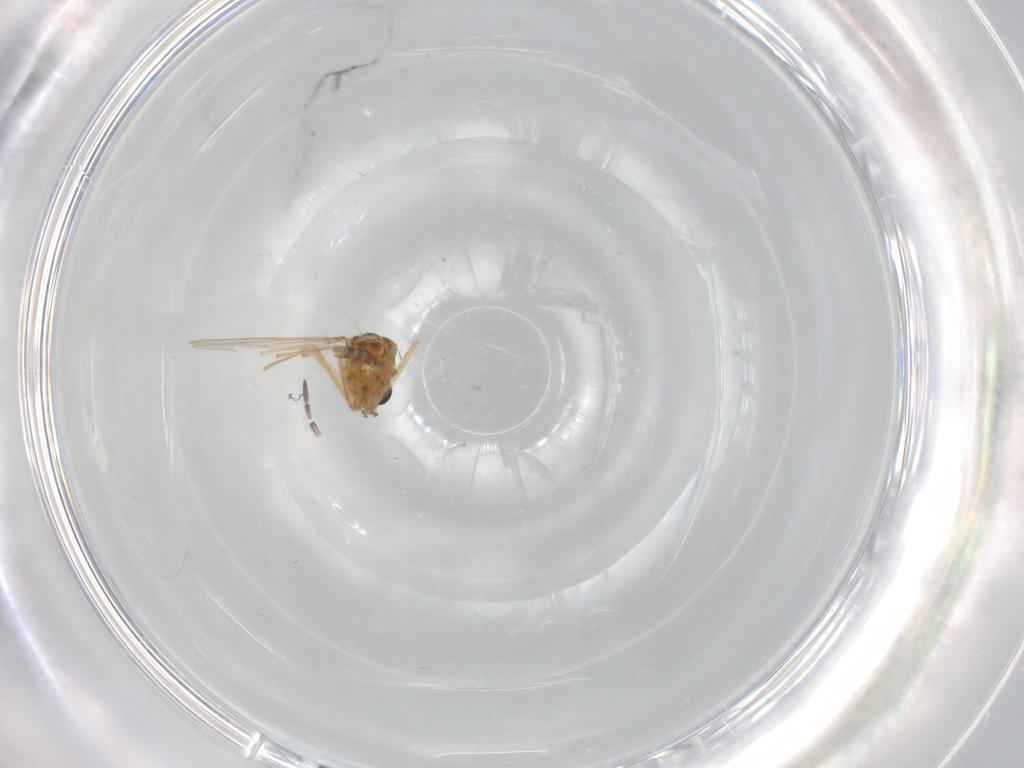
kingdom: Animalia
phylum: Arthropoda
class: Insecta
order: Diptera
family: Chironomidae
